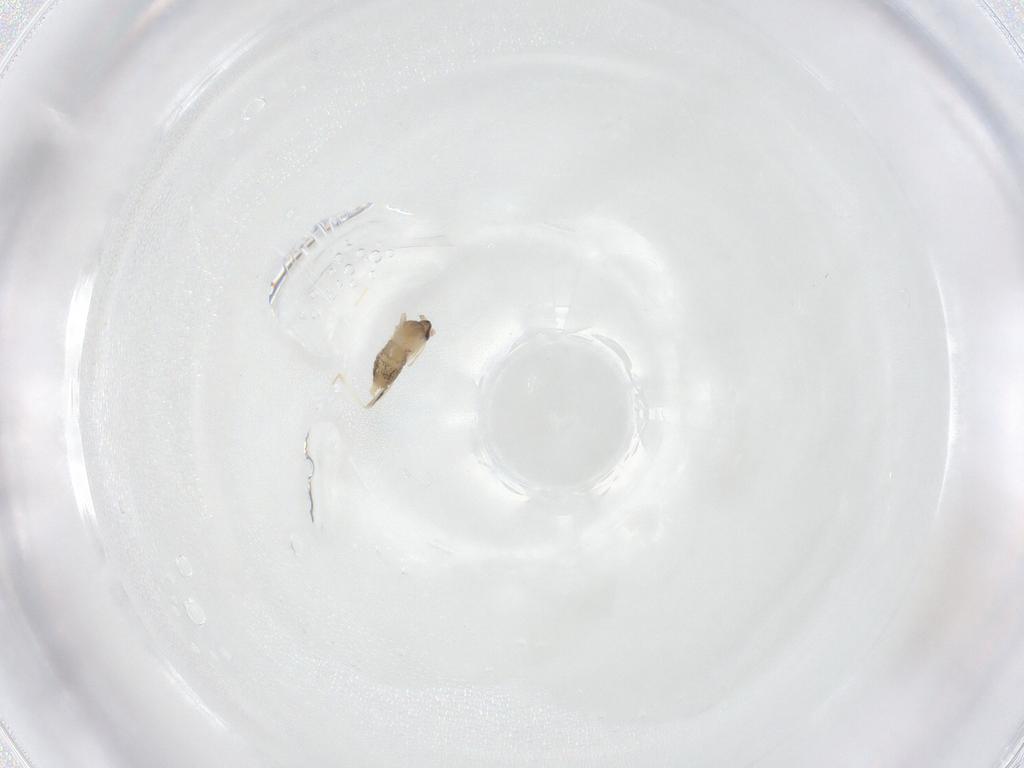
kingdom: Animalia
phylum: Arthropoda
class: Insecta
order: Diptera
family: Cecidomyiidae
